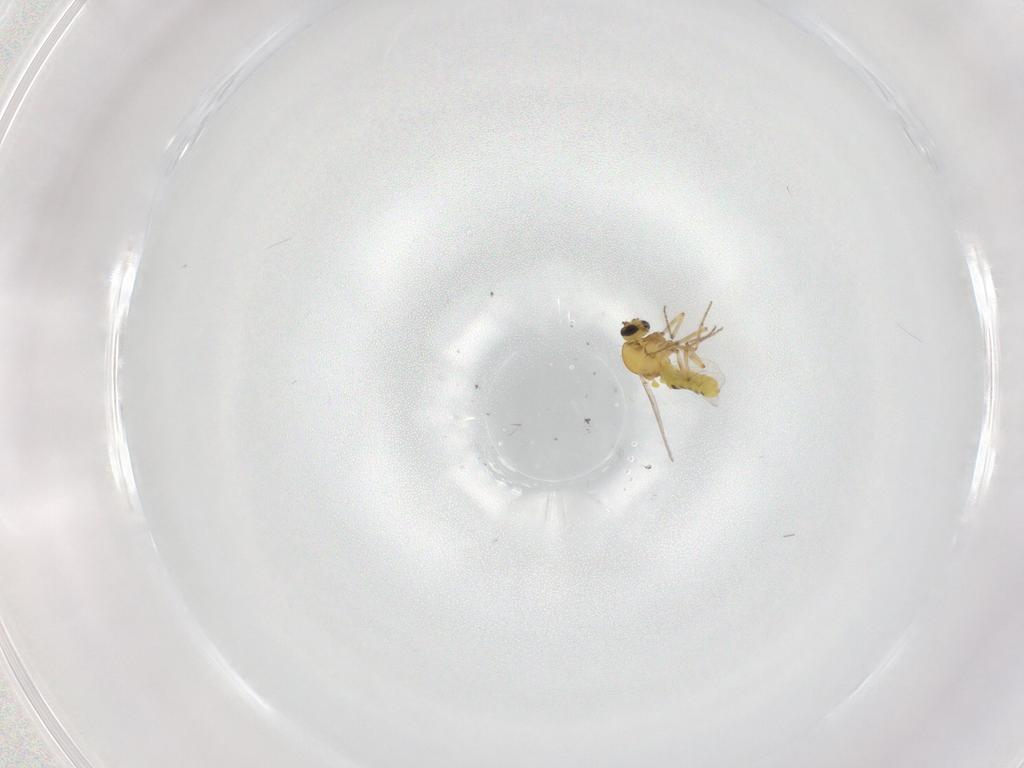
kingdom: Animalia
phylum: Arthropoda
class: Insecta
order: Diptera
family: Ceratopogonidae
